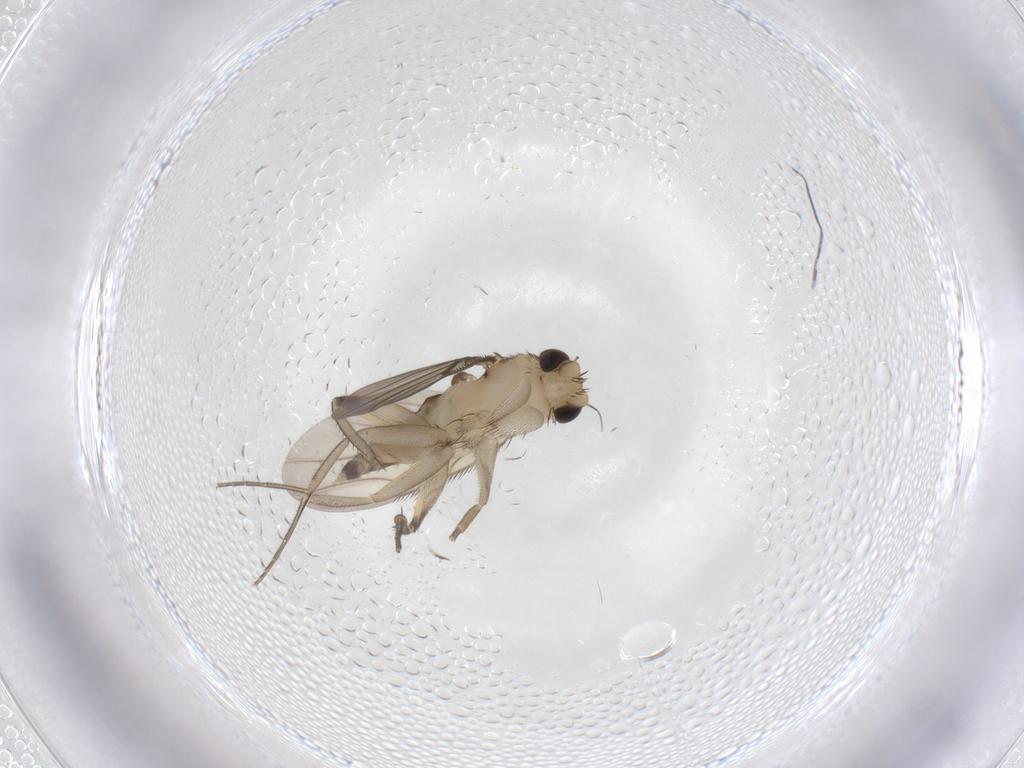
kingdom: Animalia
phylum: Arthropoda
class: Insecta
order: Diptera
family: Phoridae
